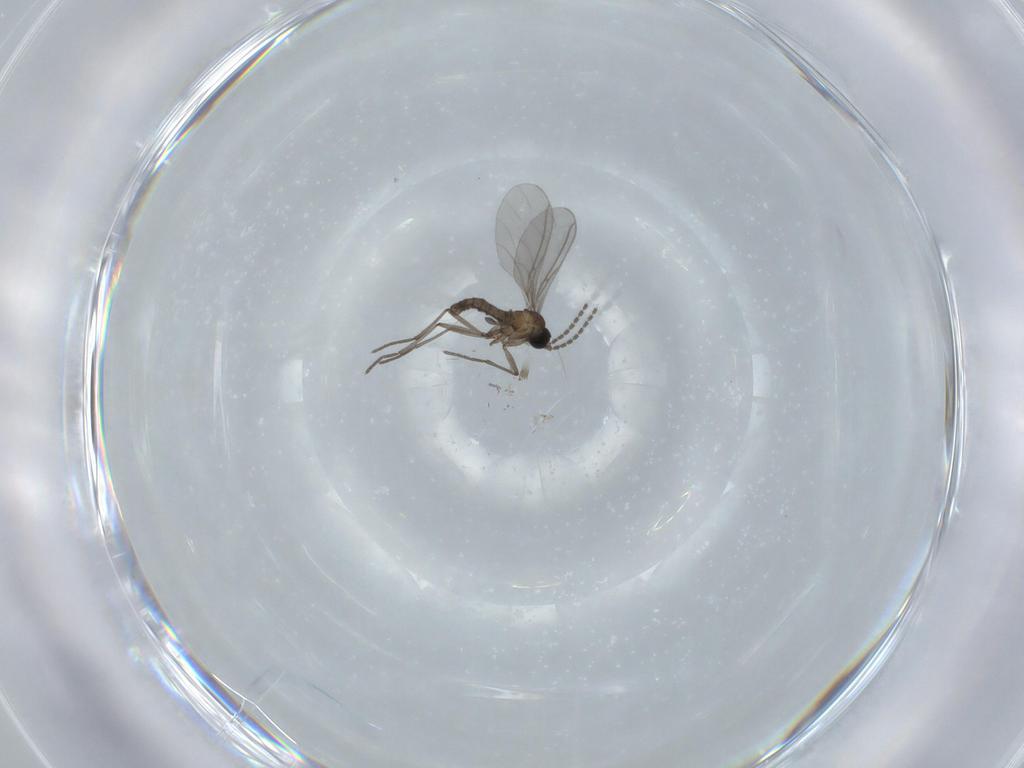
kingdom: Animalia
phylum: Arthropoda
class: Insecta
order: Diptera
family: Sciaridae
